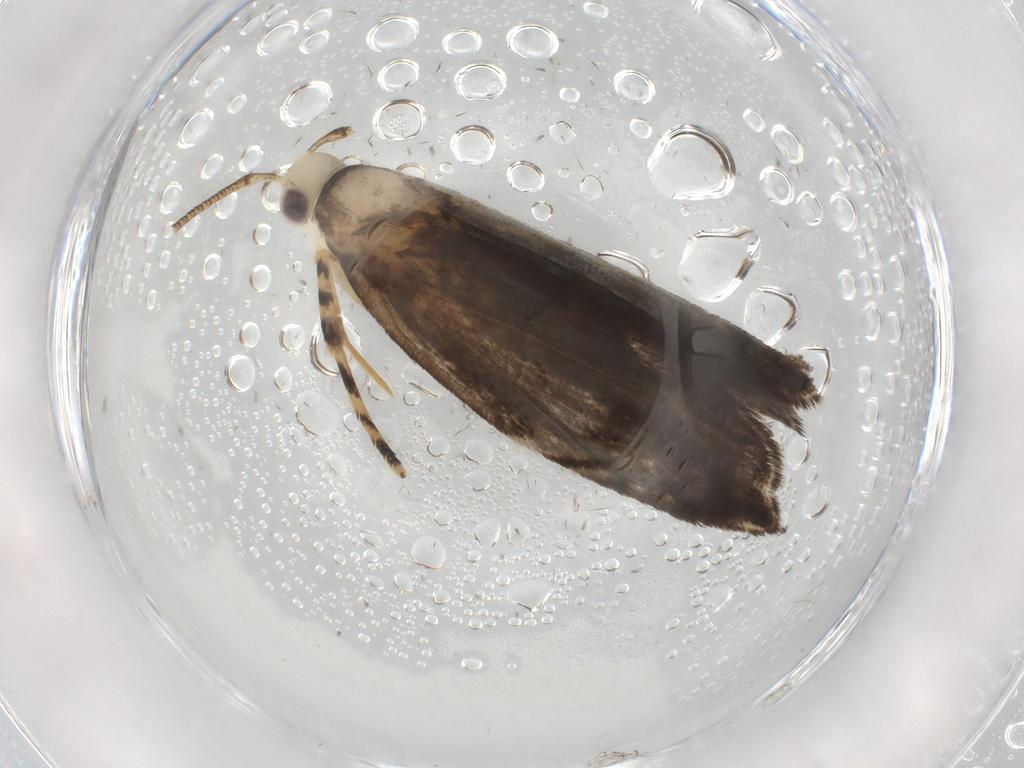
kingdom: Animalia
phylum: Arthropoda
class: Insecta
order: Lepidoptera
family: Gelechiidae
